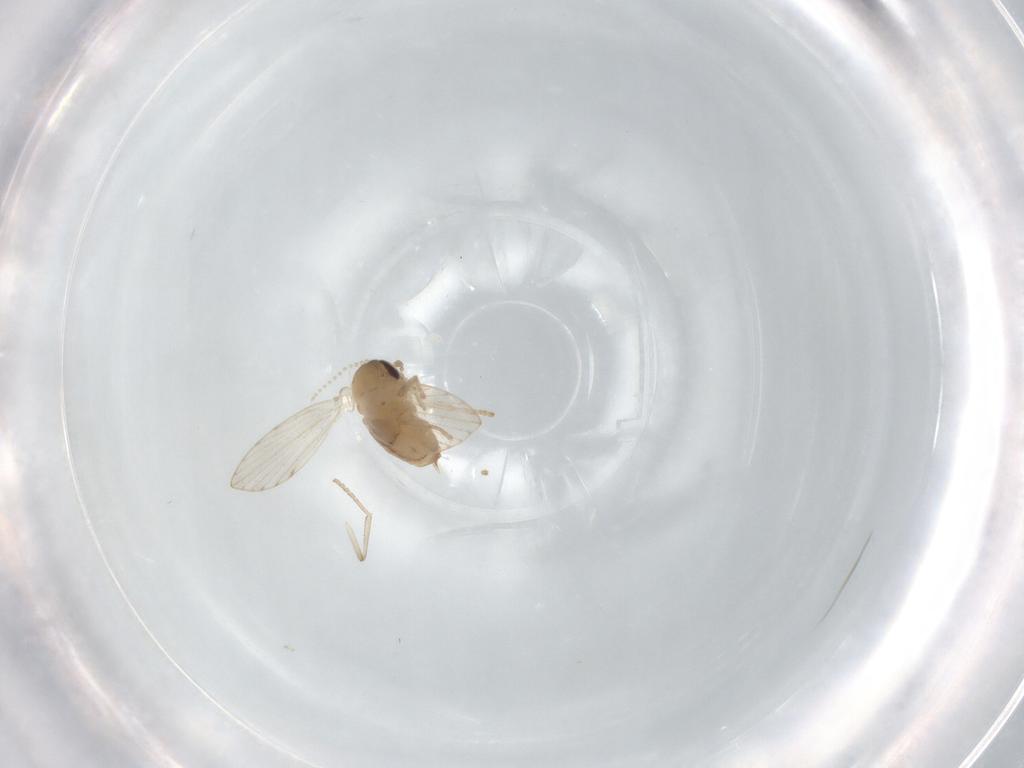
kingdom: Animalia
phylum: Arthropoda
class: Insecta
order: Diptera
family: Psychodidae
